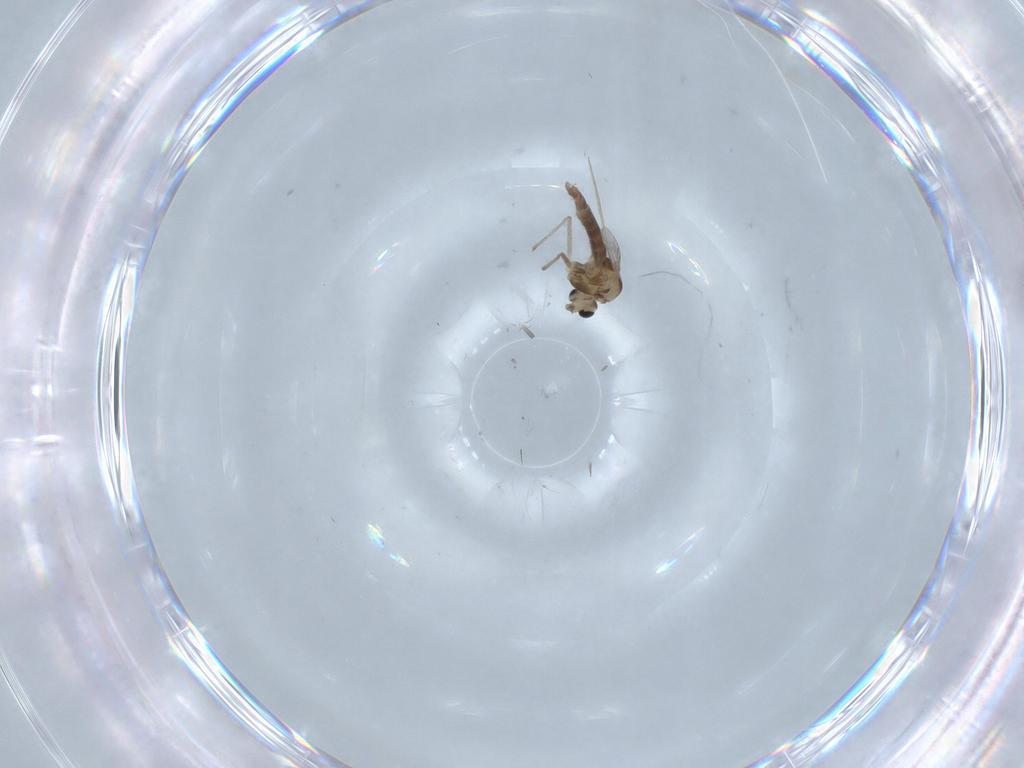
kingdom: Animalia
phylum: Arthropoda
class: Insecta
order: Diptera
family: Chironomidae
